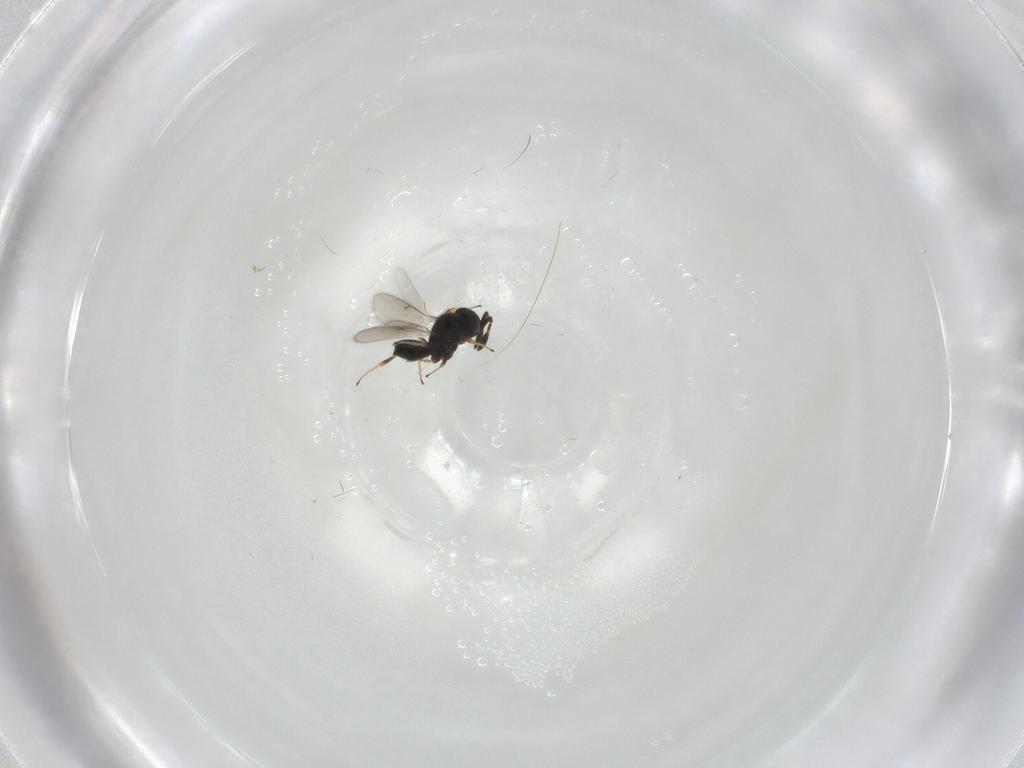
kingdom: Animalia
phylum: Arthropoda
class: Insecta
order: Hymenoptera
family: Scelionidae
